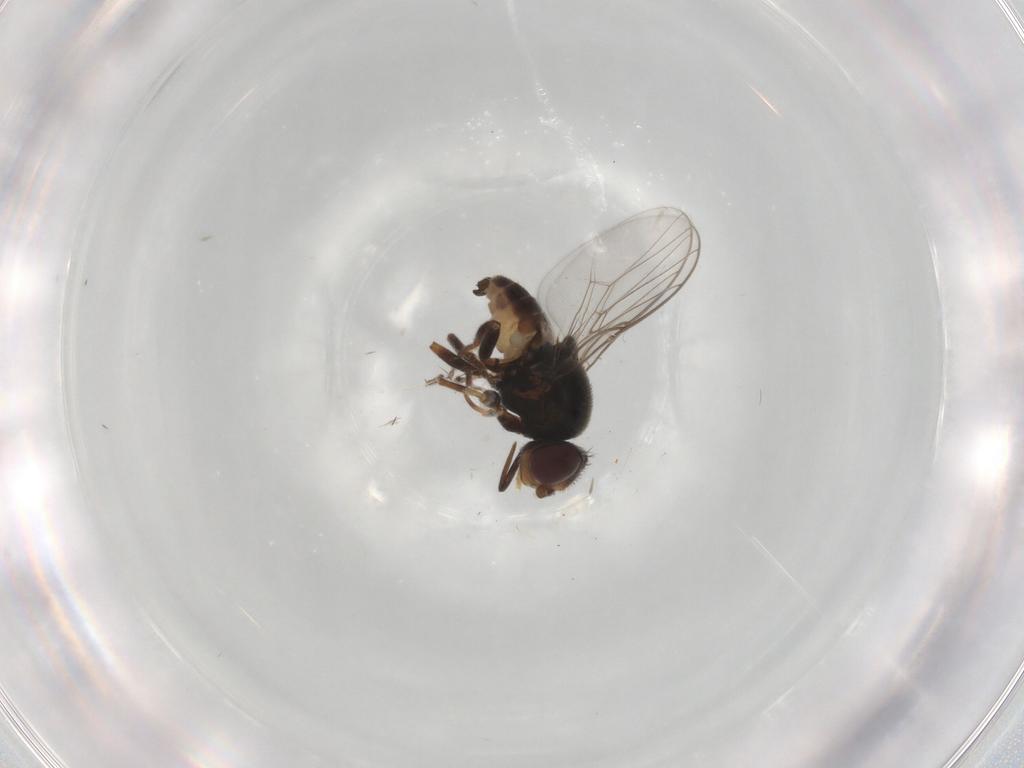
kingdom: Animalia
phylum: Arthropoda
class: Insecta
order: Diptera
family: Chloropidae
